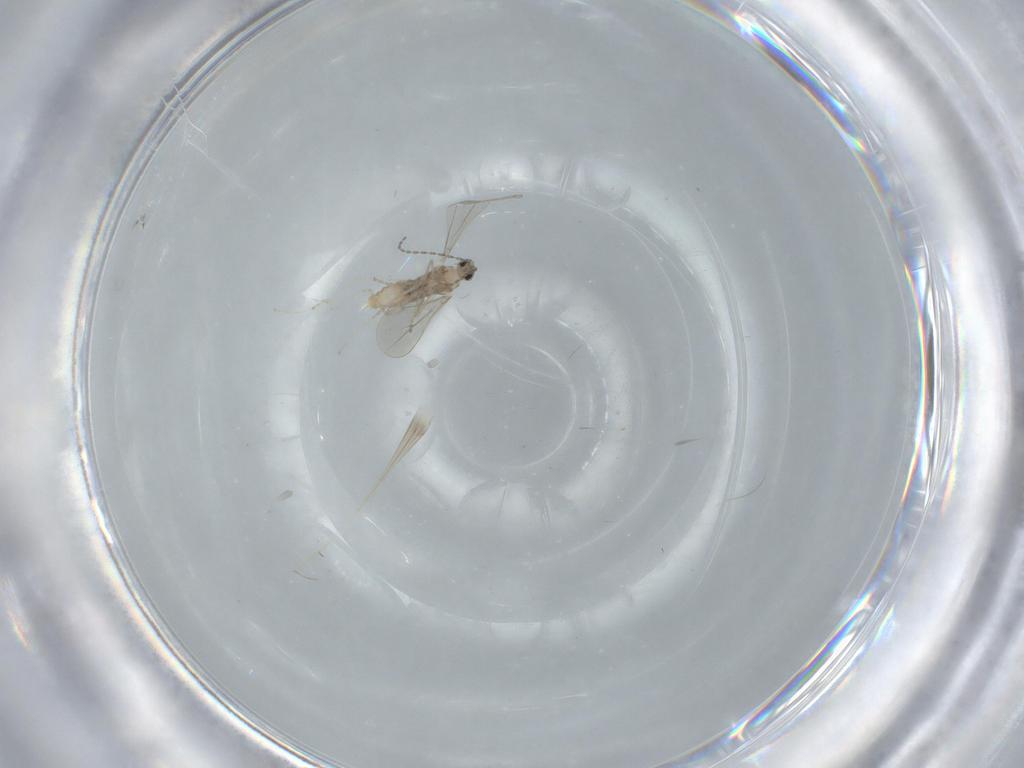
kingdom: Animalia
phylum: Arthropoda
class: Insecta
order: Diptera
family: Cecidomyiidae
